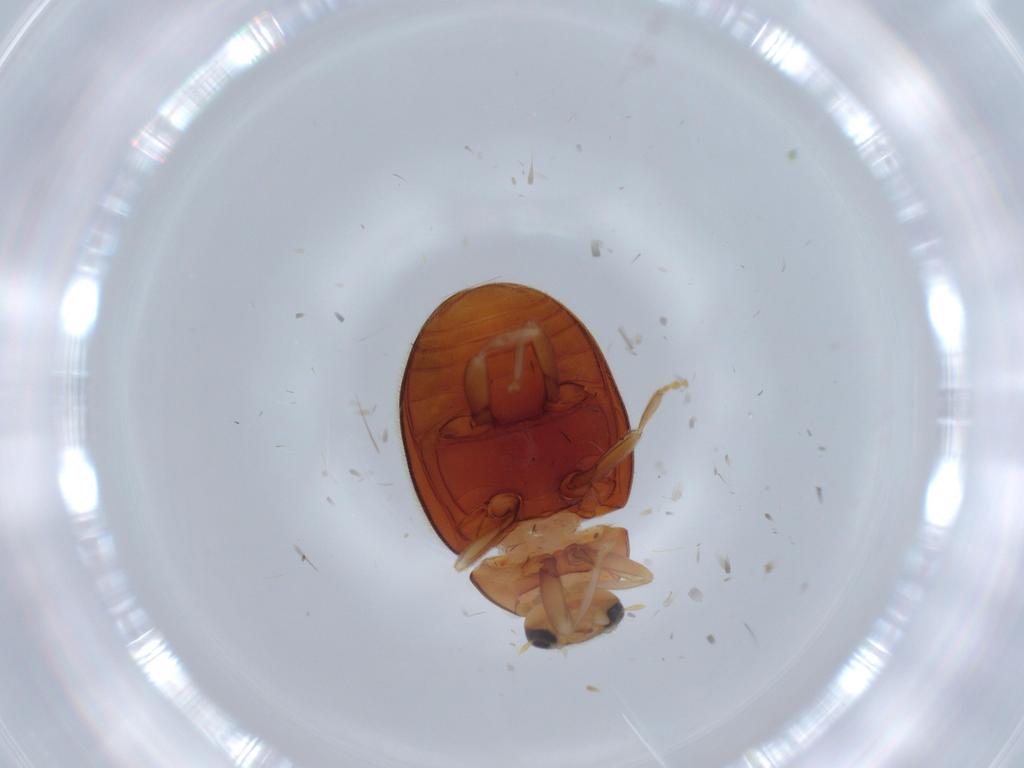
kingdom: Animalia
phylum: Arthropoda
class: Insecta
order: Coleoptera
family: Coccinellidae
